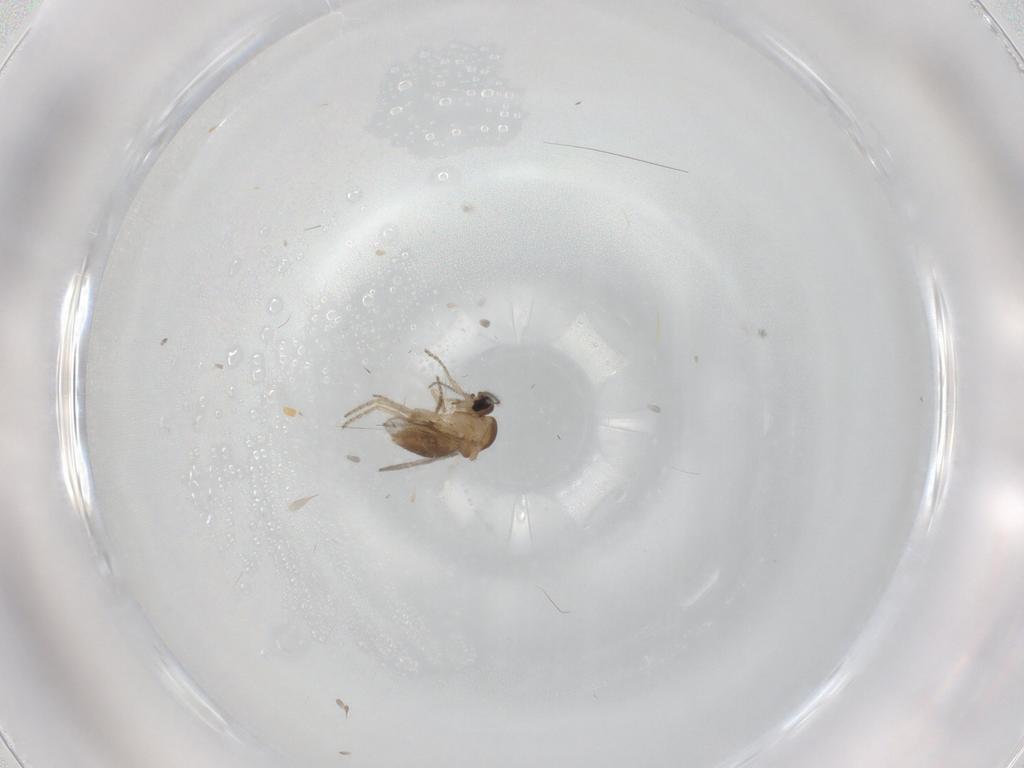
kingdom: Animalia
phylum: Arthropoda
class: Insecta
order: Diptera
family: Ceratopogonidae
